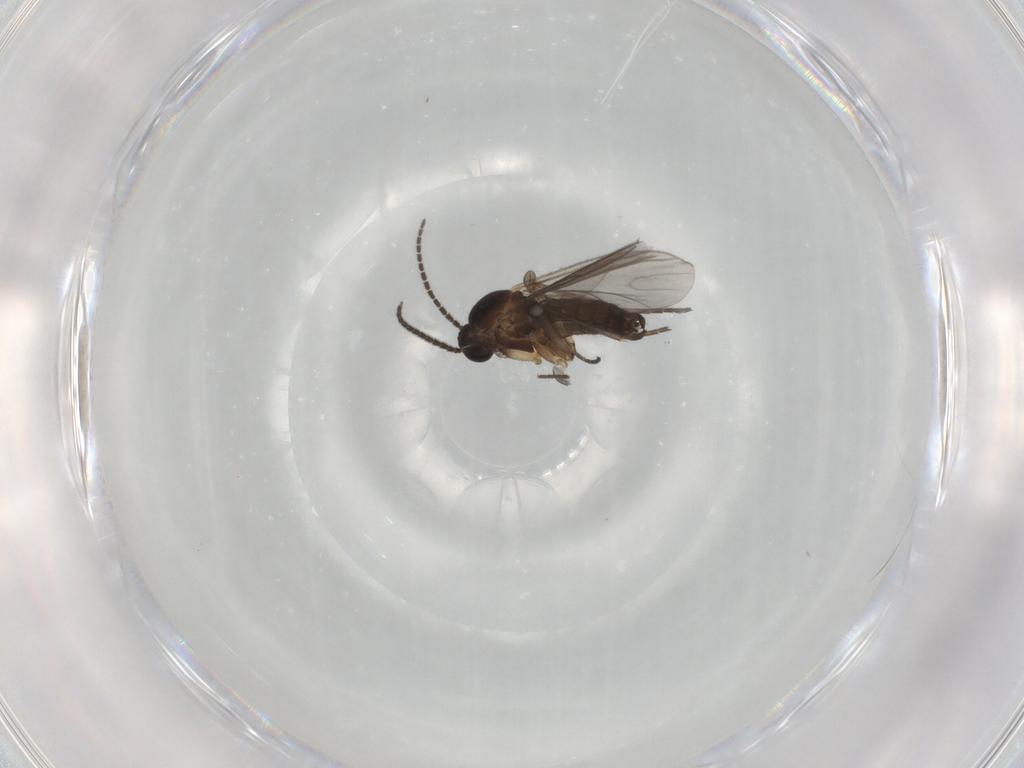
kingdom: Animalia
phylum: Arthropoda
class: Insecta
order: Diptera
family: Sciaridae
